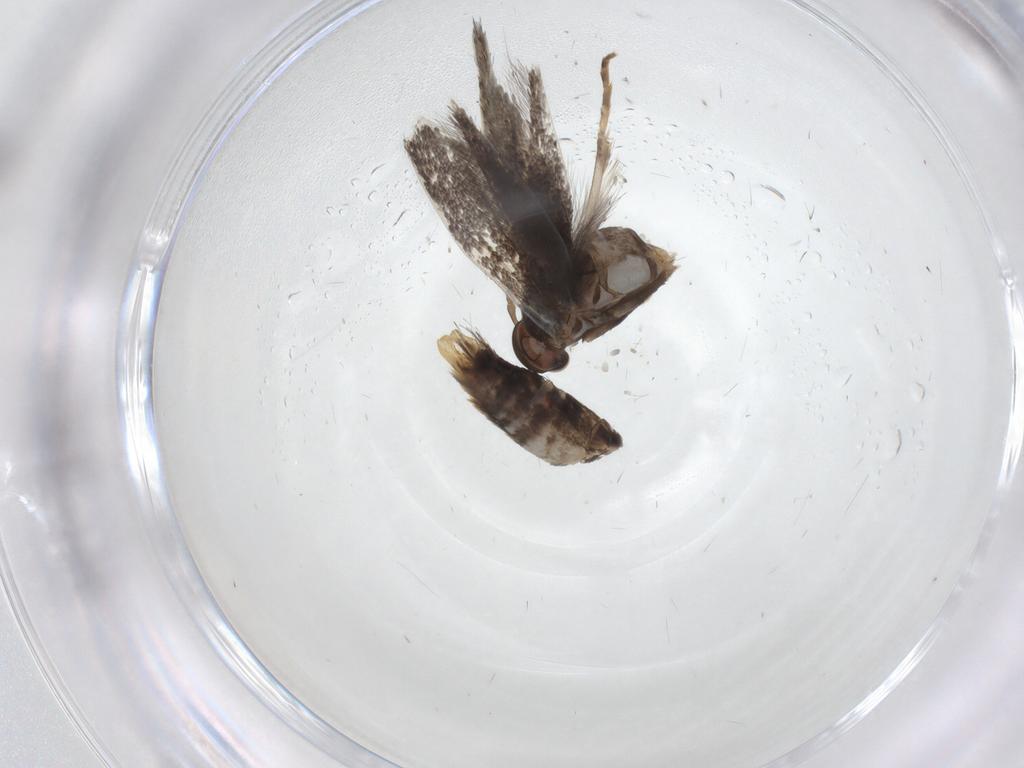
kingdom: Animalia
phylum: Arthropoda
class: Insecta
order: Lepidoptera
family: Elachistidae
